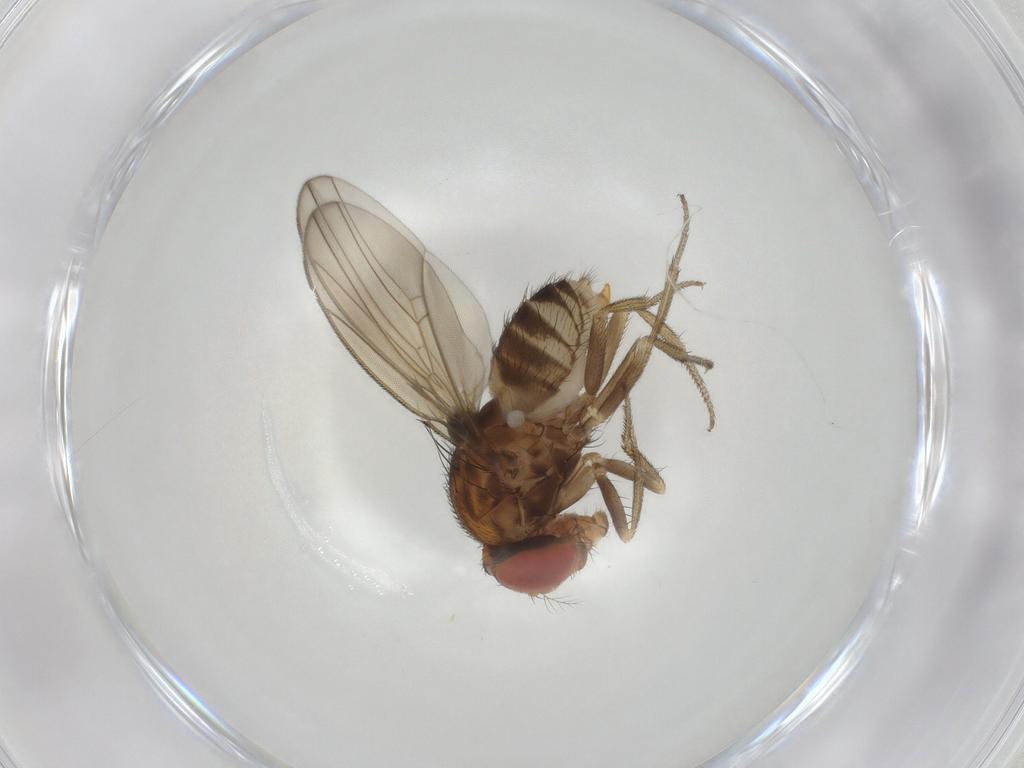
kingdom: Animalia
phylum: Arthropoda
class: Insecta
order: Diptera
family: Drosophilidae
